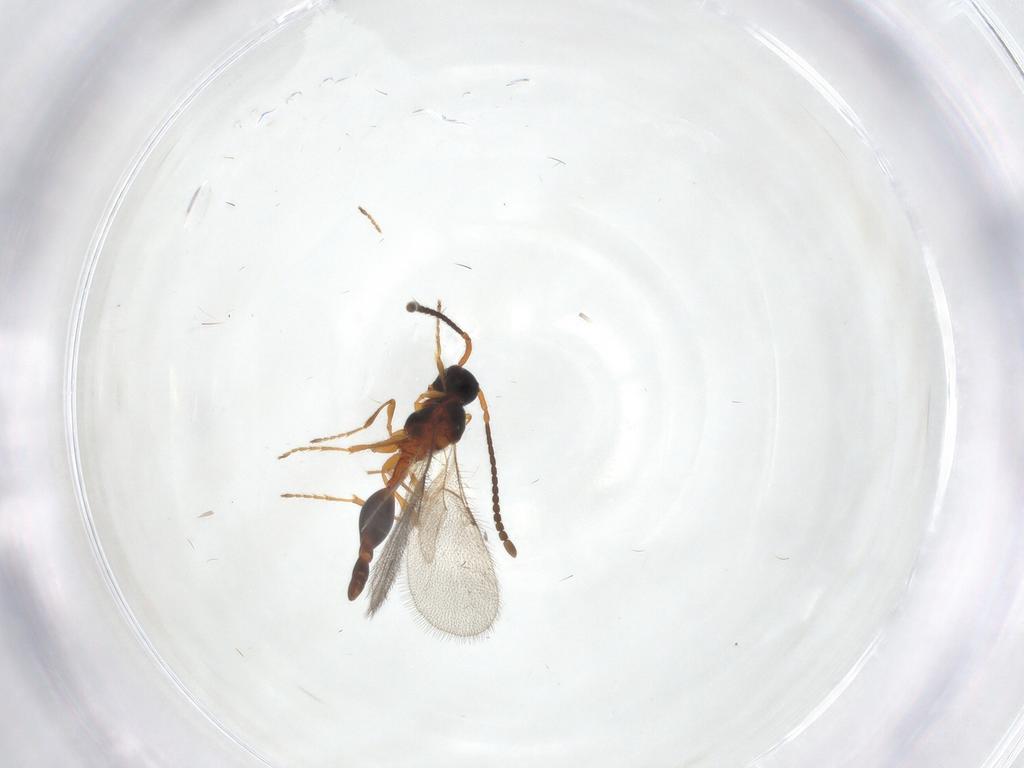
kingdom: Animalia
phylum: Arthropoda
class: Insecta
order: Hymenoptera
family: Diapriidae
